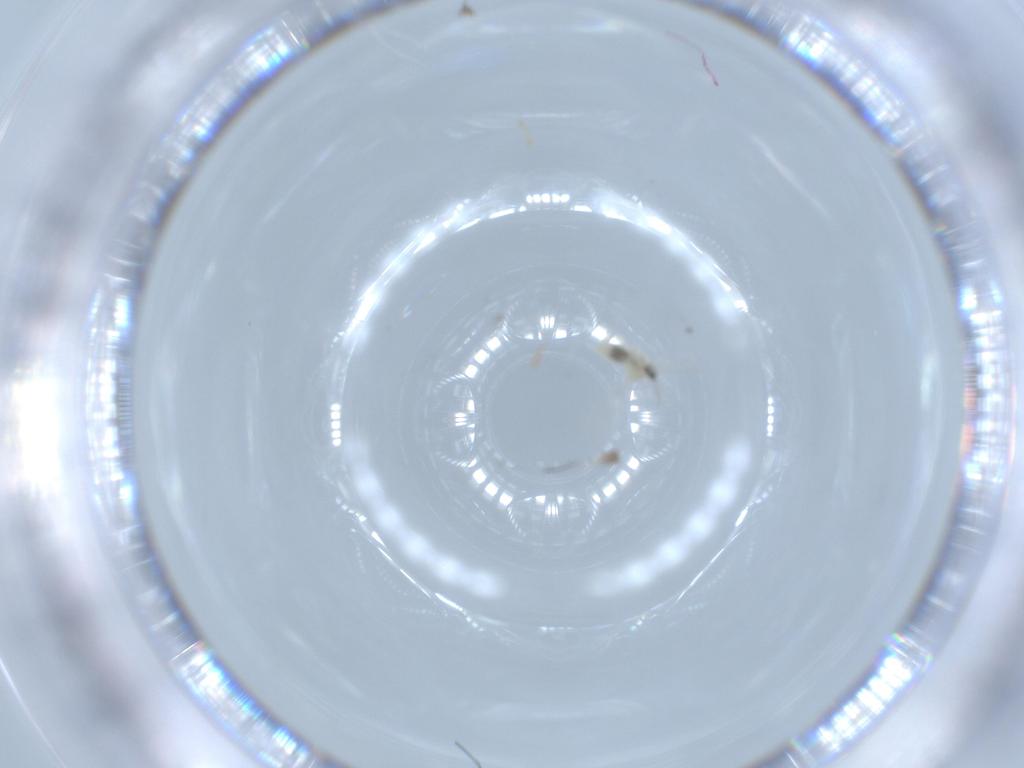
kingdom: Animalia
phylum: Arthropoda
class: Insecta
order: Diptera
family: Cecidomyiidae
